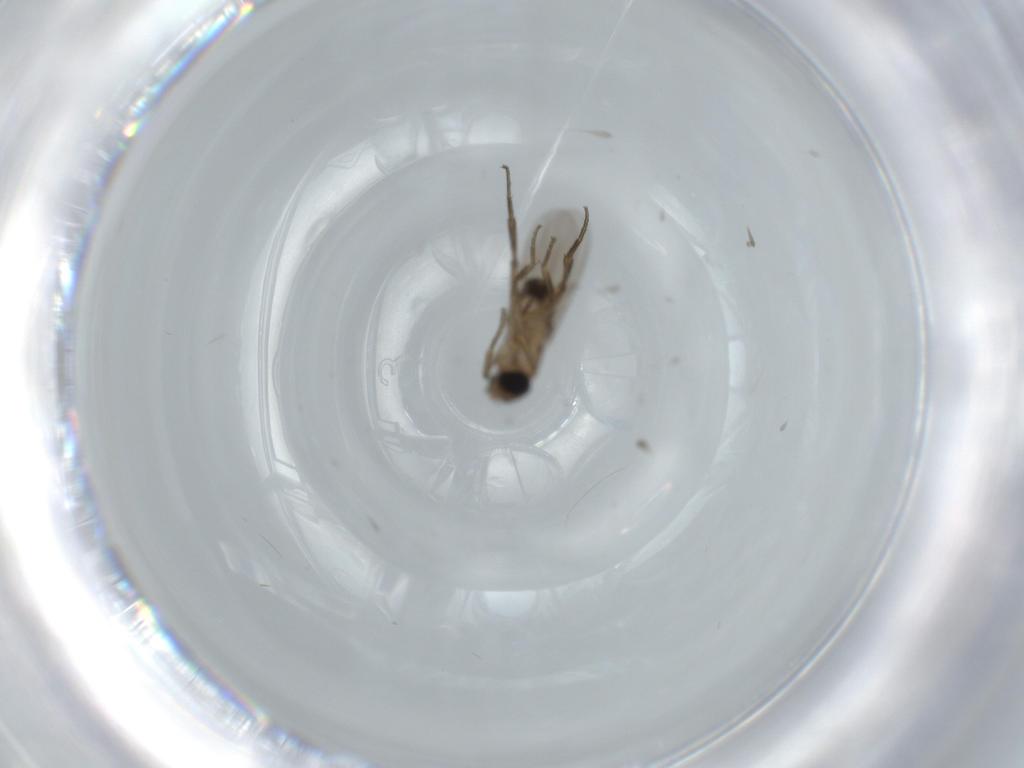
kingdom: Animalia
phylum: Arthropoda
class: Insecta
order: Diptera
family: Phoridae
